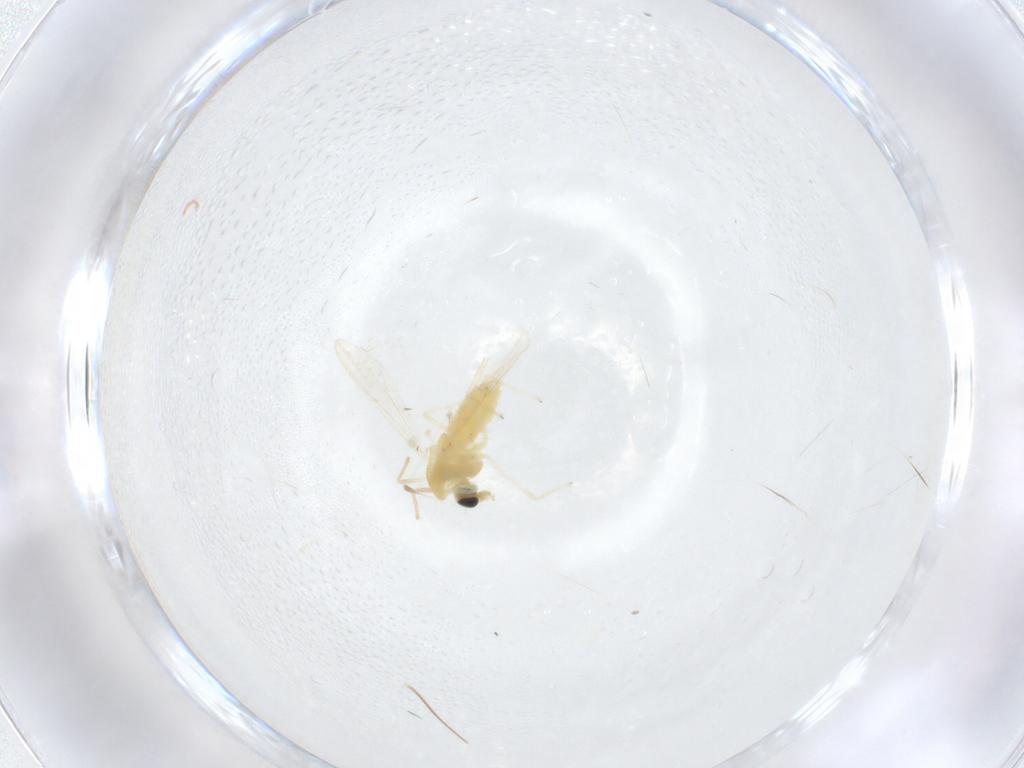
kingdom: Animalia
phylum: Arthropoda
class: Insecta
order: Diptera
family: Chironomidae
